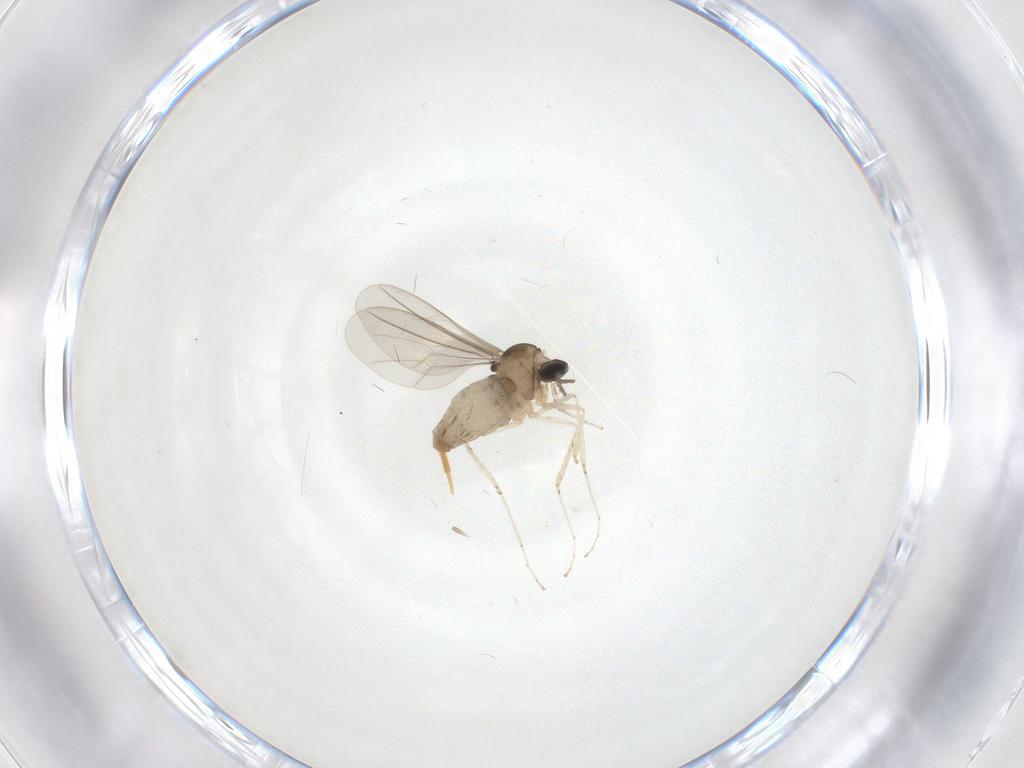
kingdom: Animalia
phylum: Arthropoda
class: Insecta
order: Diptera
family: Cecidomyiidae
